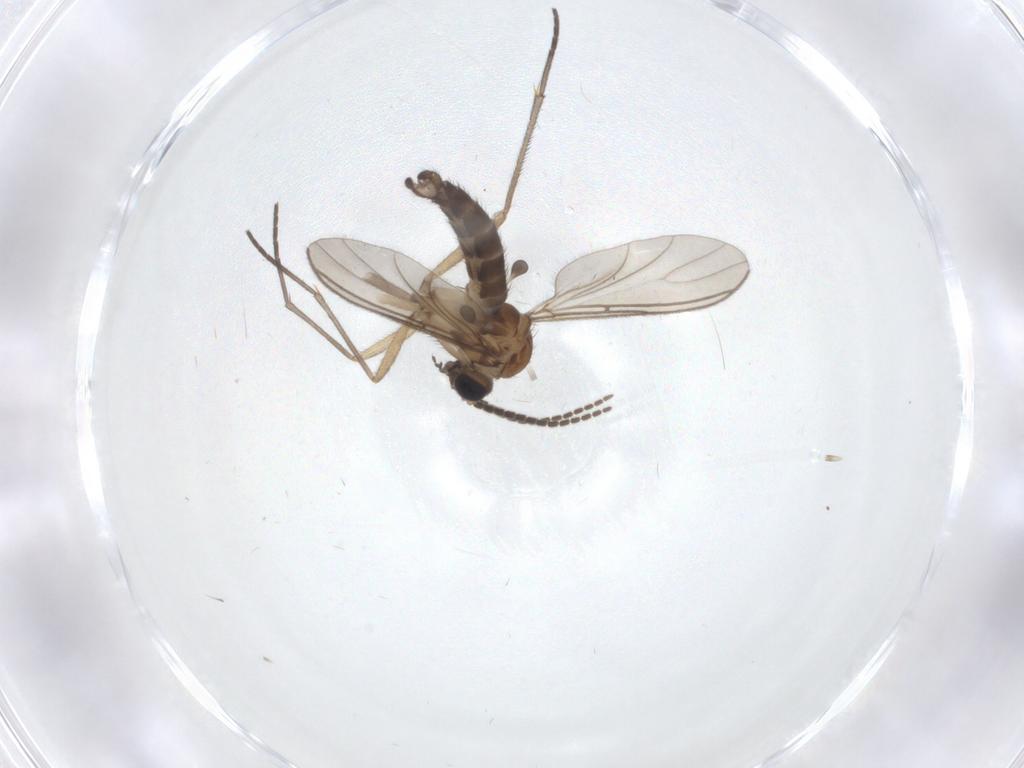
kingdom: Animalia
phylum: Arthropoda
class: Insecta
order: Diptera
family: Sciaridae
